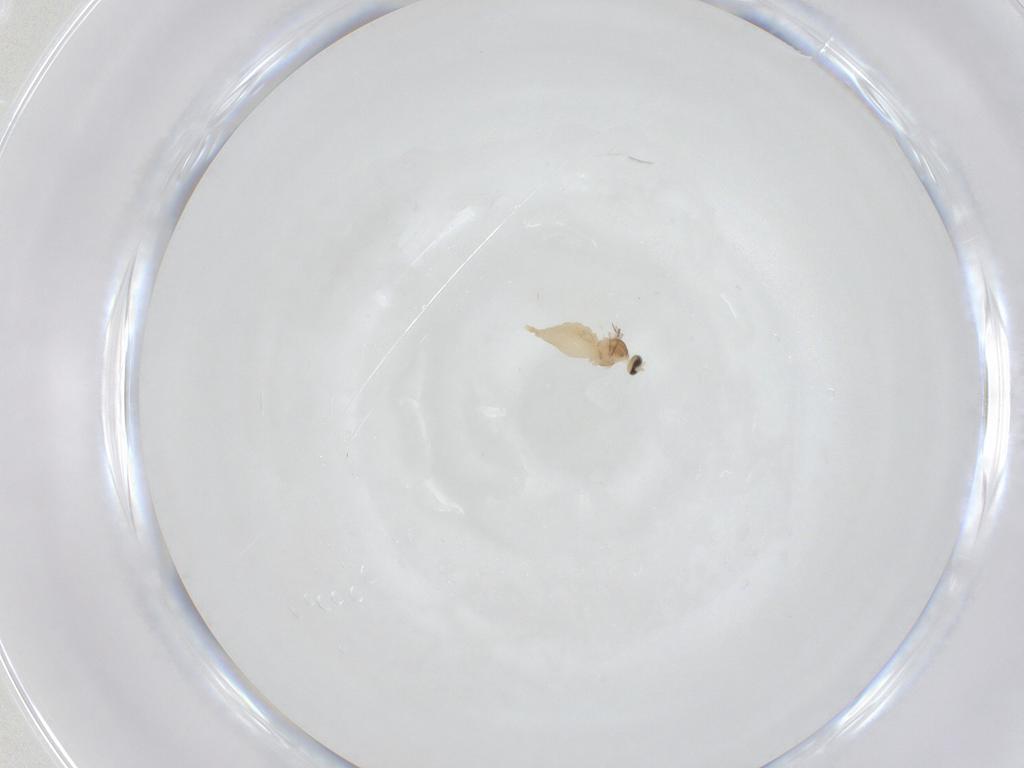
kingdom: Animalia
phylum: Arthropoda
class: Insecta
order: Diptera
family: Cecidomyiidae
